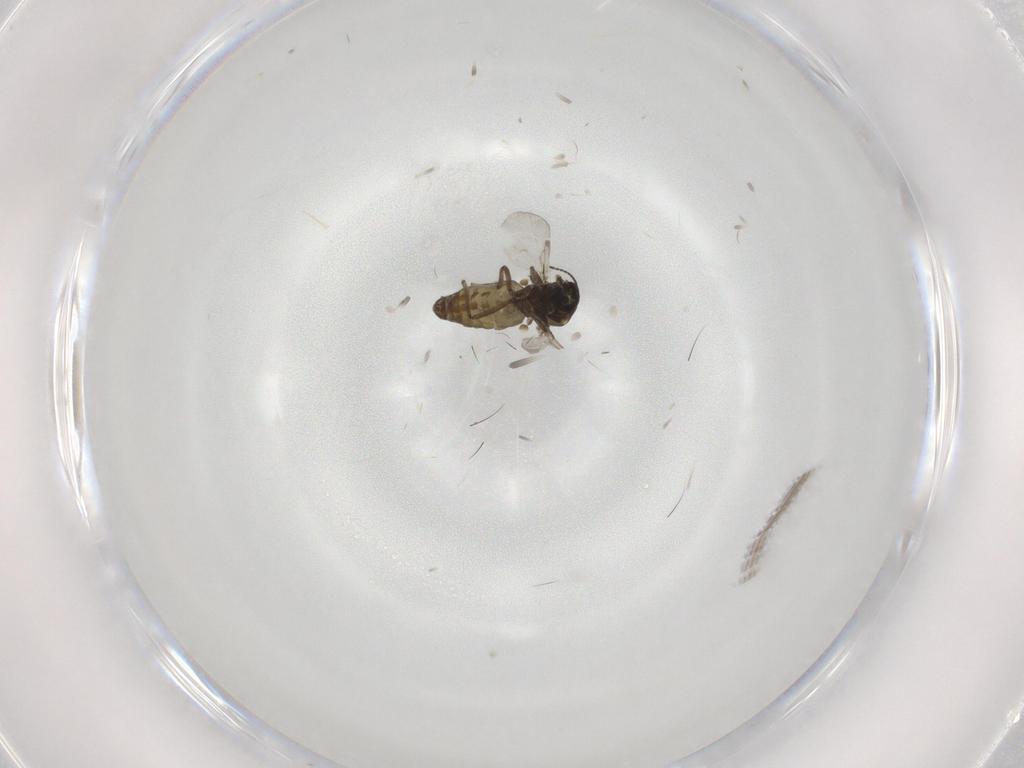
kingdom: Animalia
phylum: Arthropoda
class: Insecta
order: Diptera
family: Ceratopogonidae
